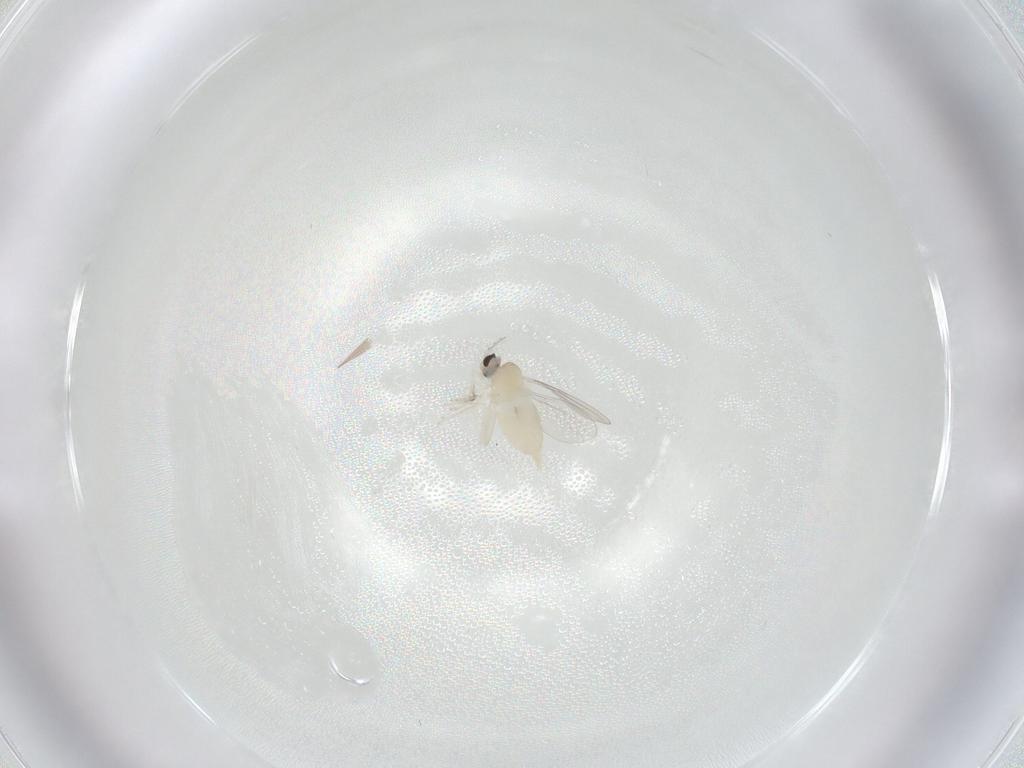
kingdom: Animalia
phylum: Arthropoda
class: Insecta
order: Diptera
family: Cecidomyiidae
